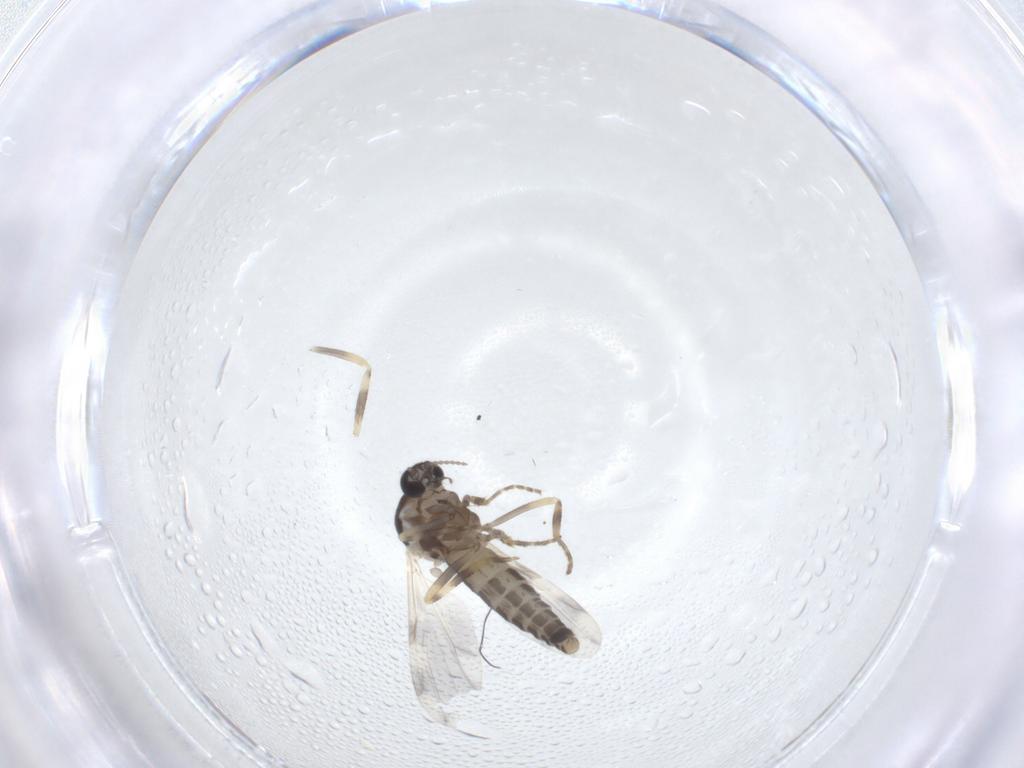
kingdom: Animalia
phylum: Arthropoda
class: Insecta
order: Diptera
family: Ceratopogonidae
